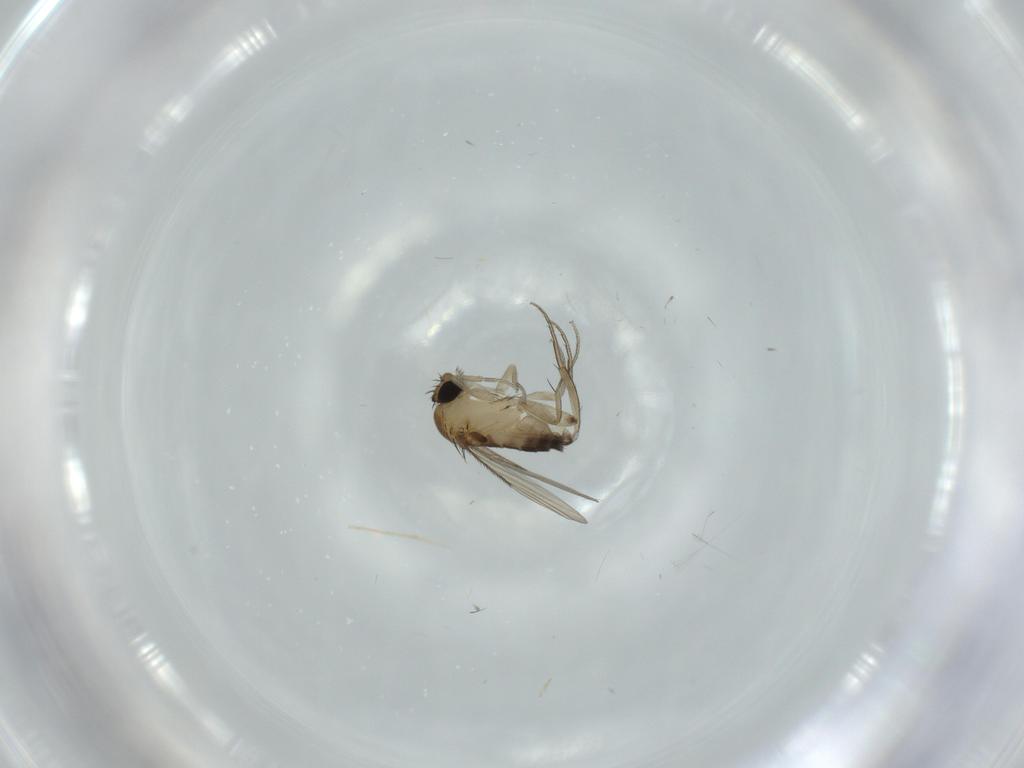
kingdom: Animalia
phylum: Arthropoda
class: Insecta
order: Diptera
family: Phoridae
